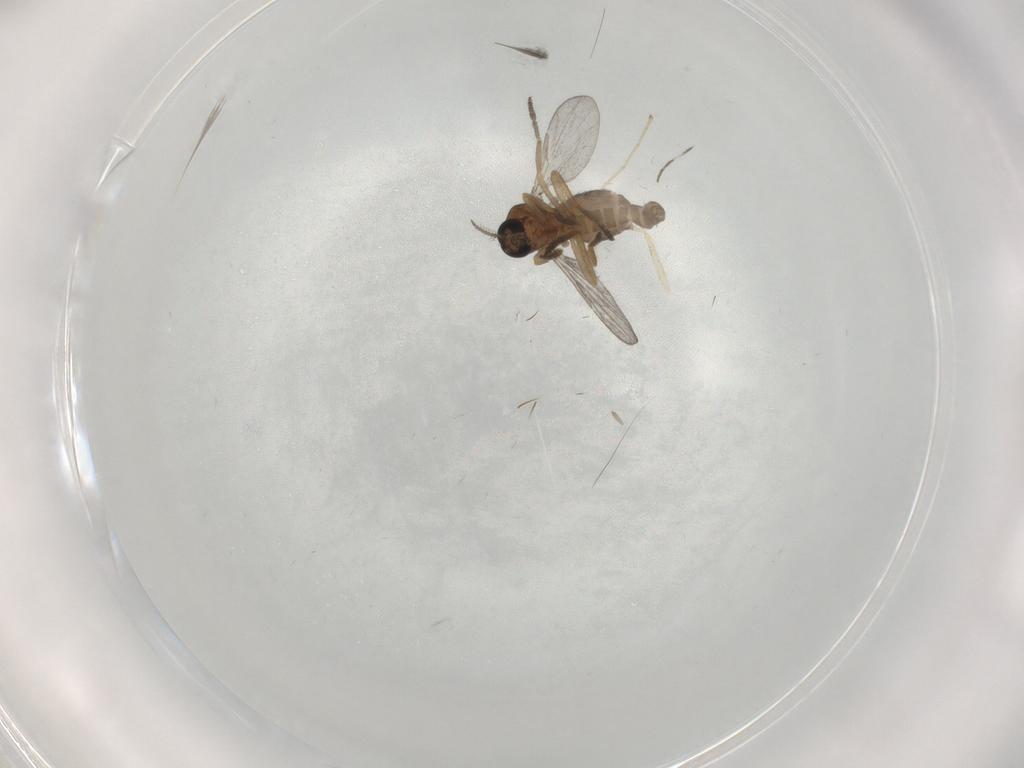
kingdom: Animalia
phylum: Arthropoda
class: Insecta
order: Diptera
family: Ceratopogonidae
